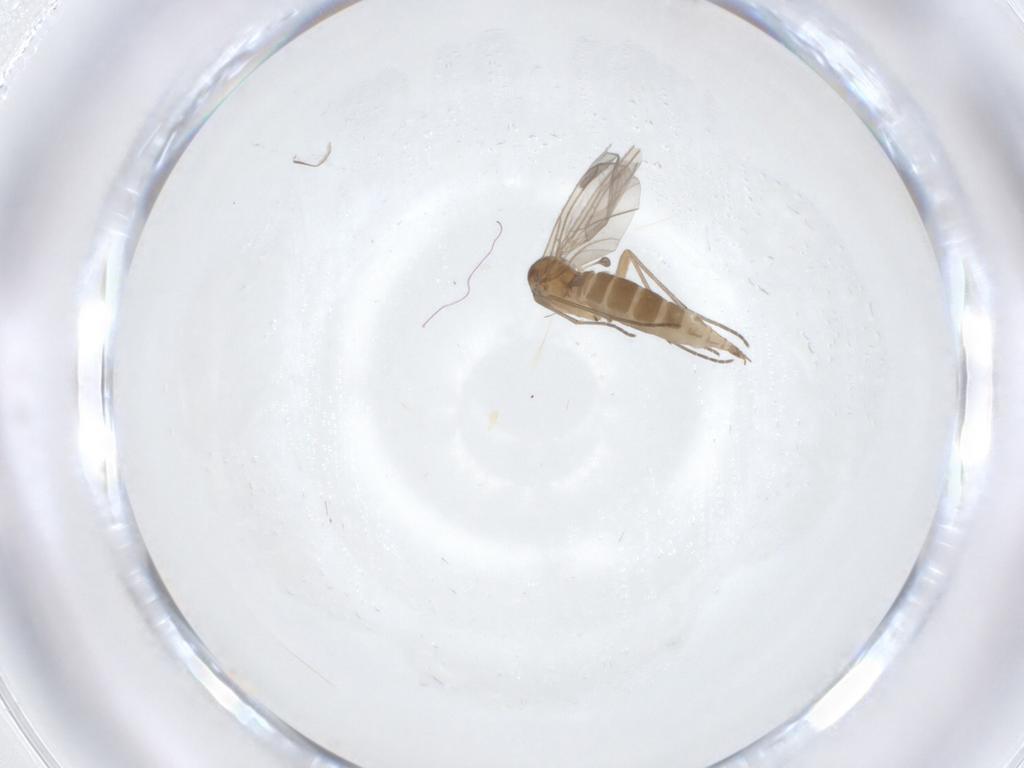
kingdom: Animalia
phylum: Arthropoda
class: Insecta
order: Diptera
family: Sciaridae
